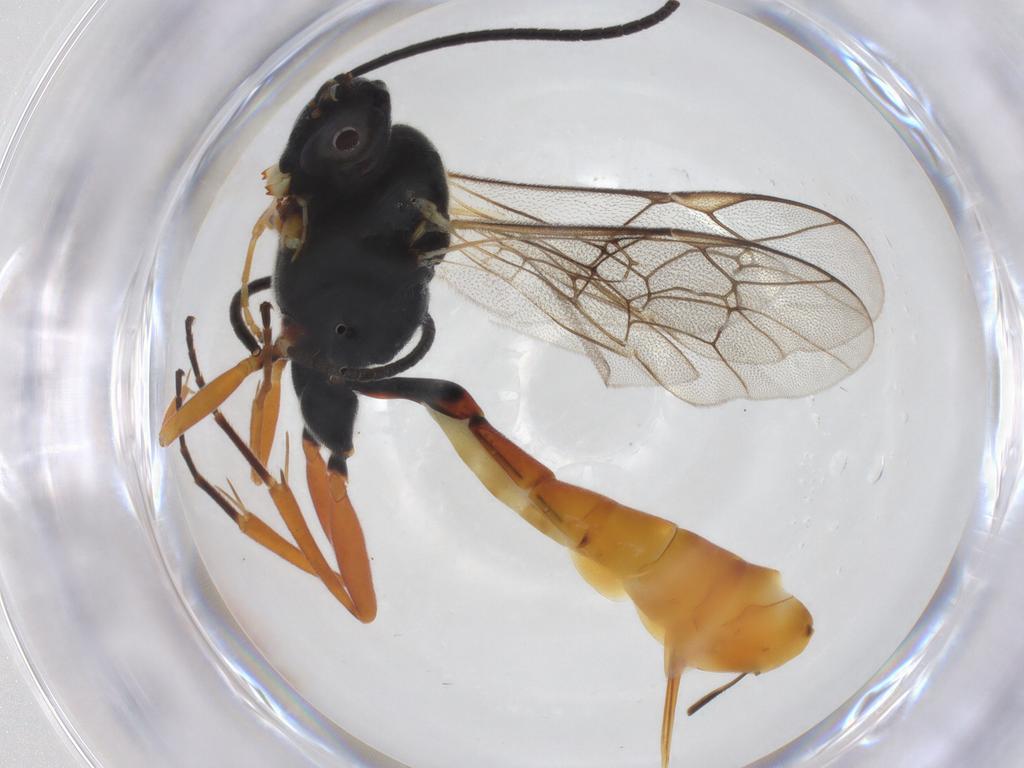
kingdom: Animalia
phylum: Arthropoda
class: Insecta
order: Hymenoptera
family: Ichneumonidae
